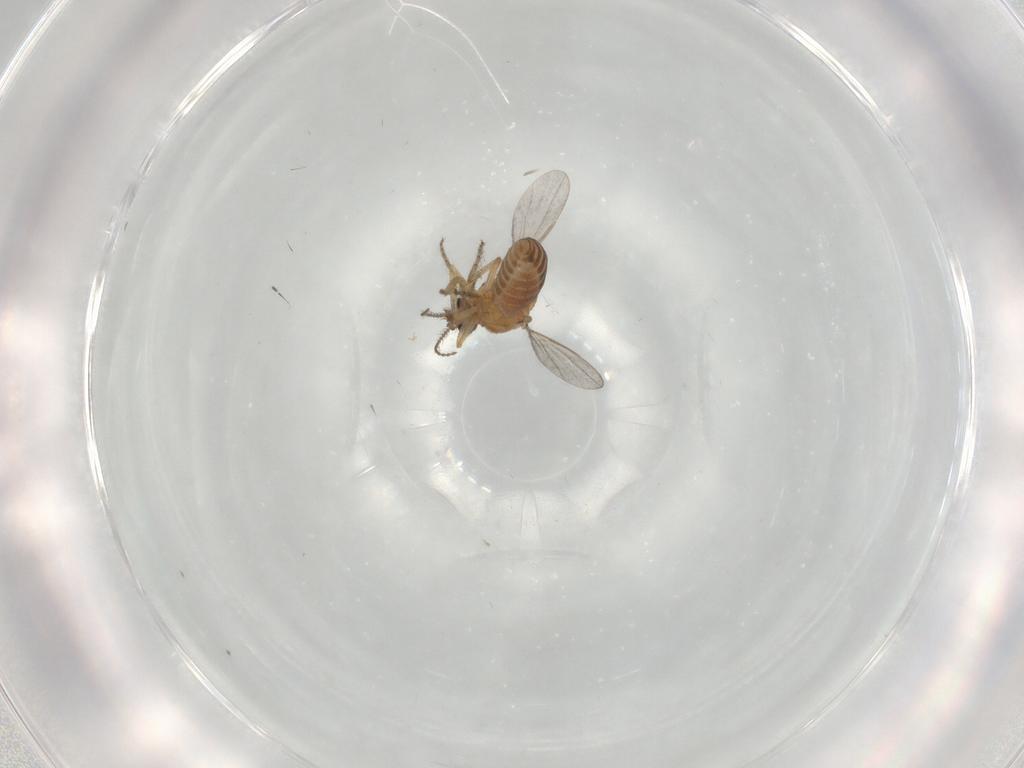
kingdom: Animalia
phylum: Arthropoda
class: Insecta
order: Diptera
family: Ceratopogonidae
